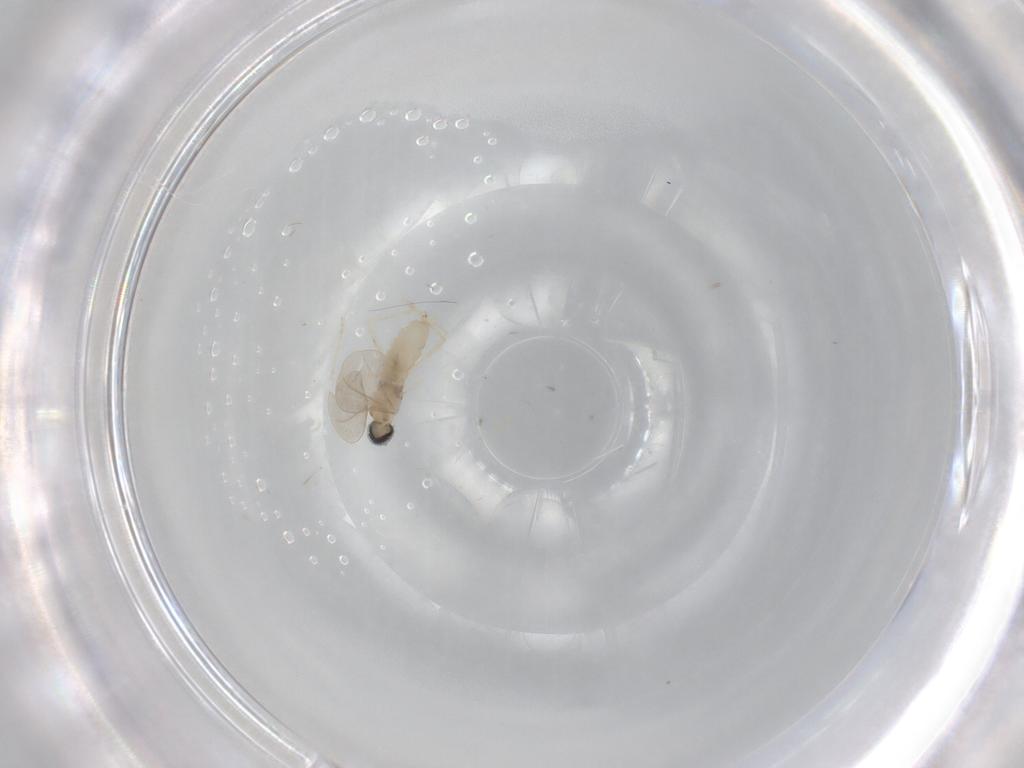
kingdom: Animalia
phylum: Arthropoda
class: Insecta
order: Diptera
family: Cecidomyiidae
